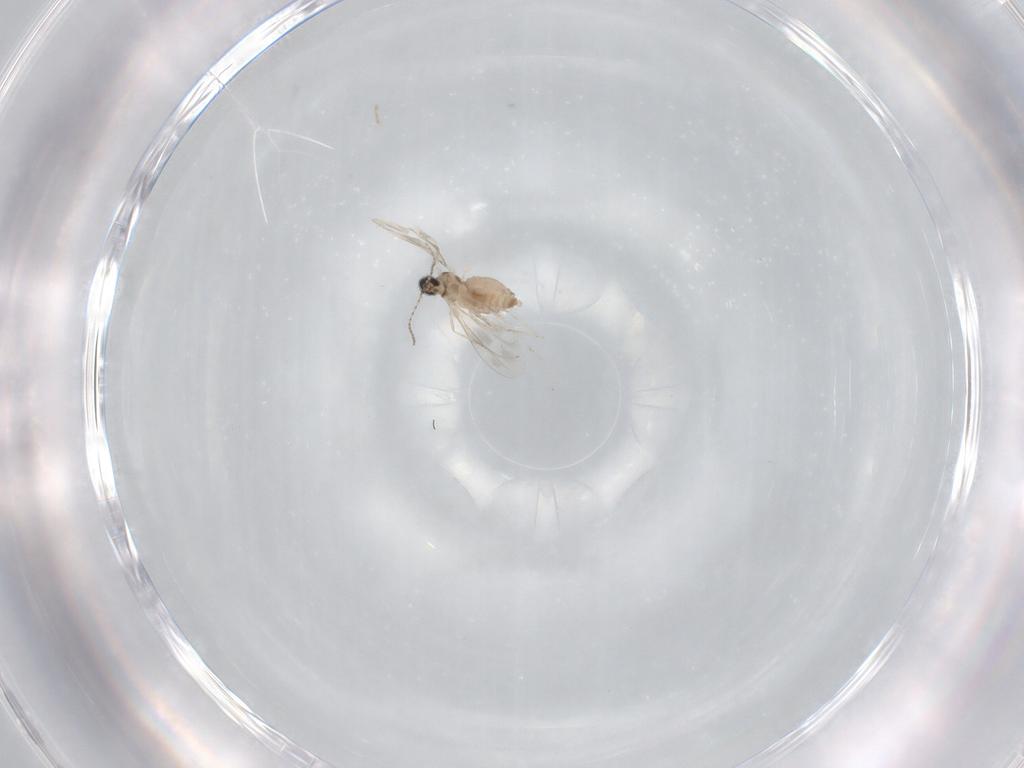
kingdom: Animalia
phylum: Arthropoda
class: Insecta
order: Diptera
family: Cecidomyiidae
